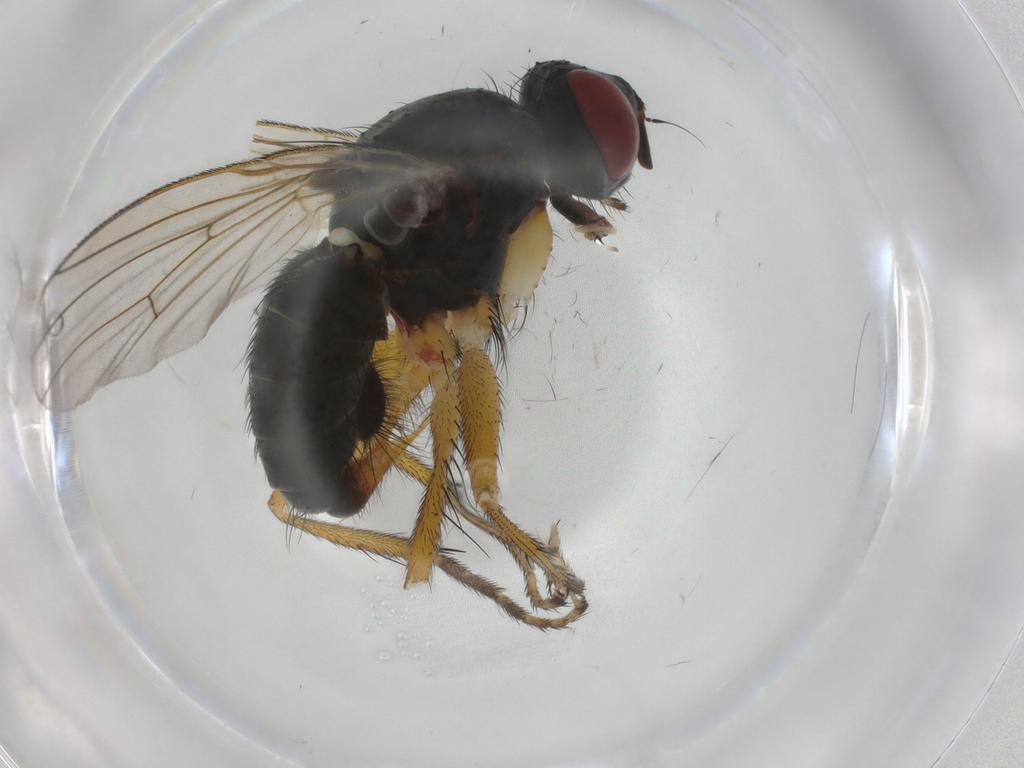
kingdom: Animalia
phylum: Arthropoda
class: Insecta
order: Diptera
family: Muscidae
